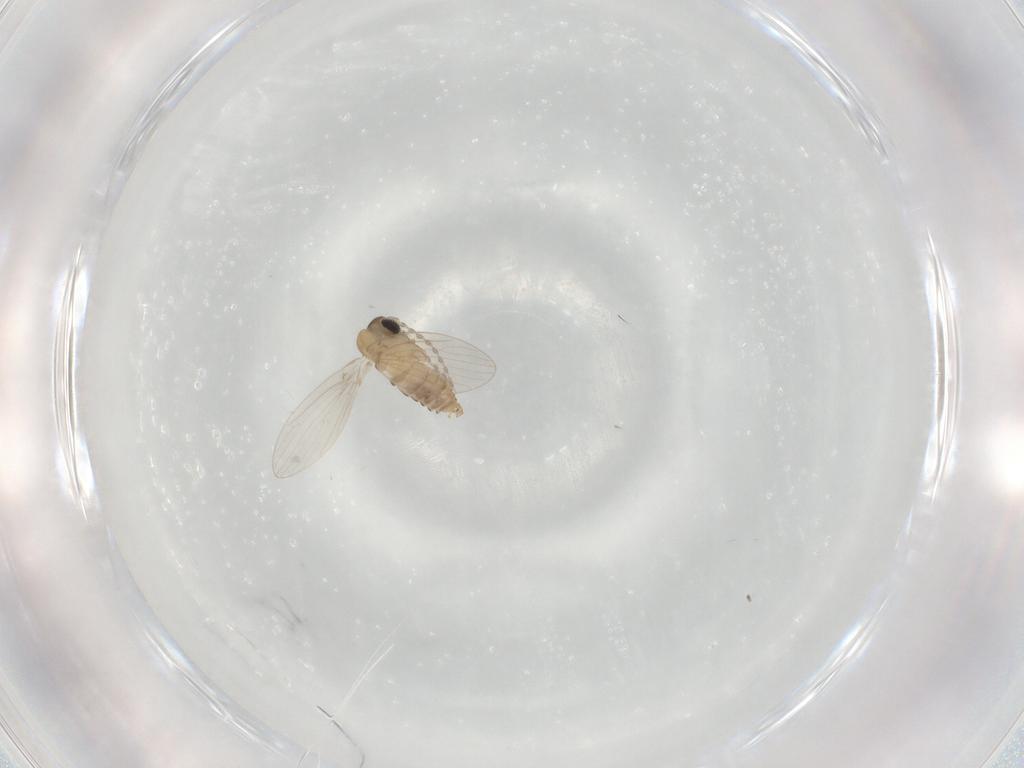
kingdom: Animalia
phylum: Arthropoda
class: Insecta
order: Diptera
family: Psychodidae
